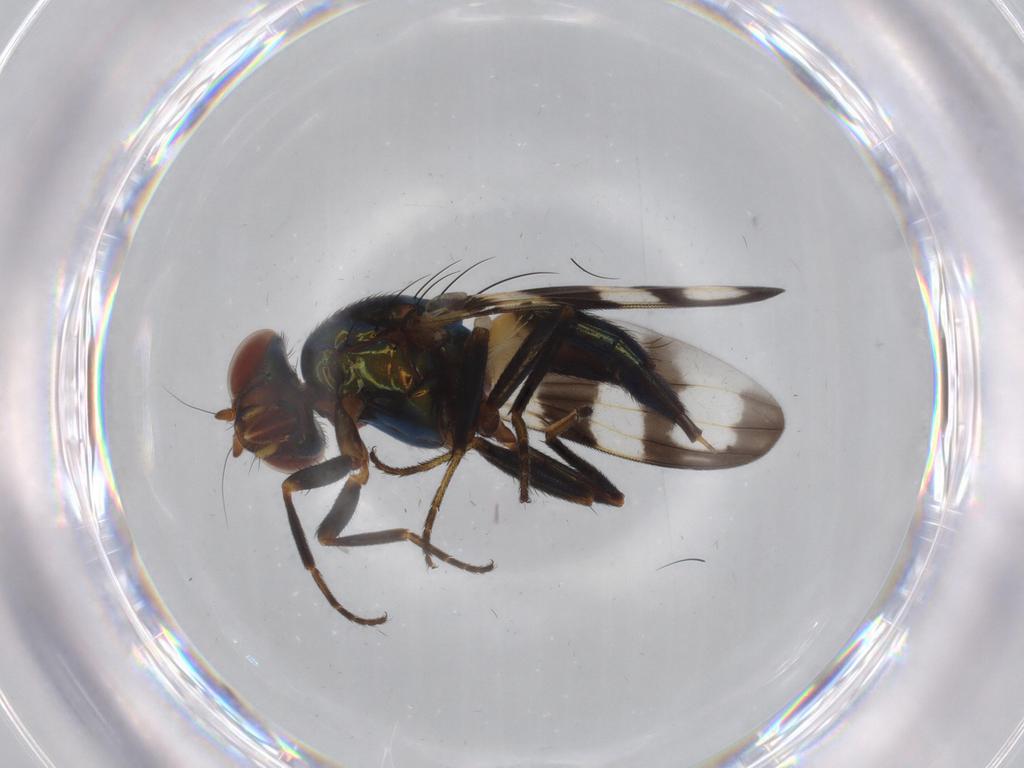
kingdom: Animalia
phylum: Arthropoda
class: Insecta
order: Diptera
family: Ulidiidae
